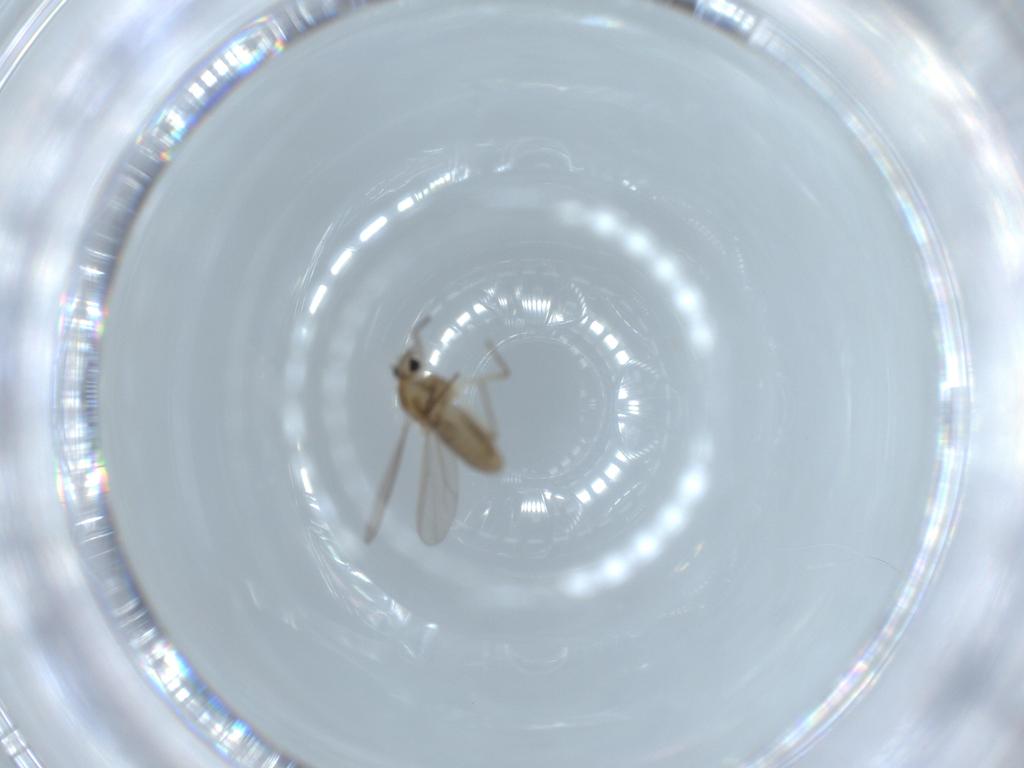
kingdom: Animalia
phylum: Arthropoda
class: Insecta
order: Diptera
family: Chironomidae
